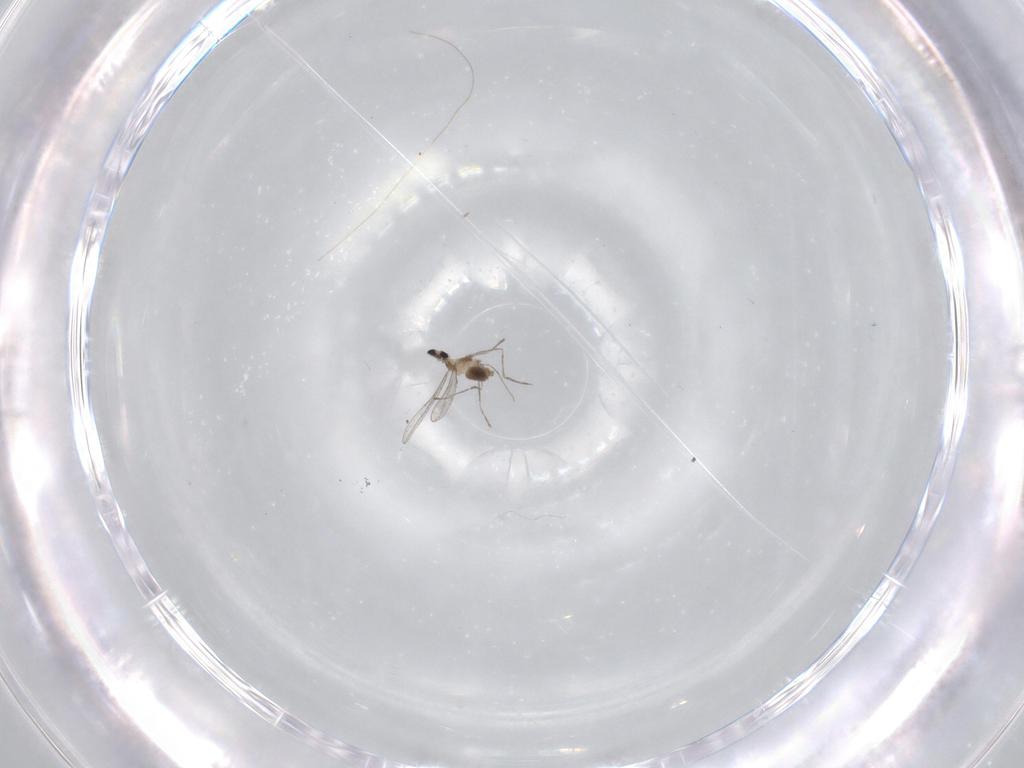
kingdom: Animalia
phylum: Arthropoda
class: Insecta
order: Diptera
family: Cecidomyiidae
